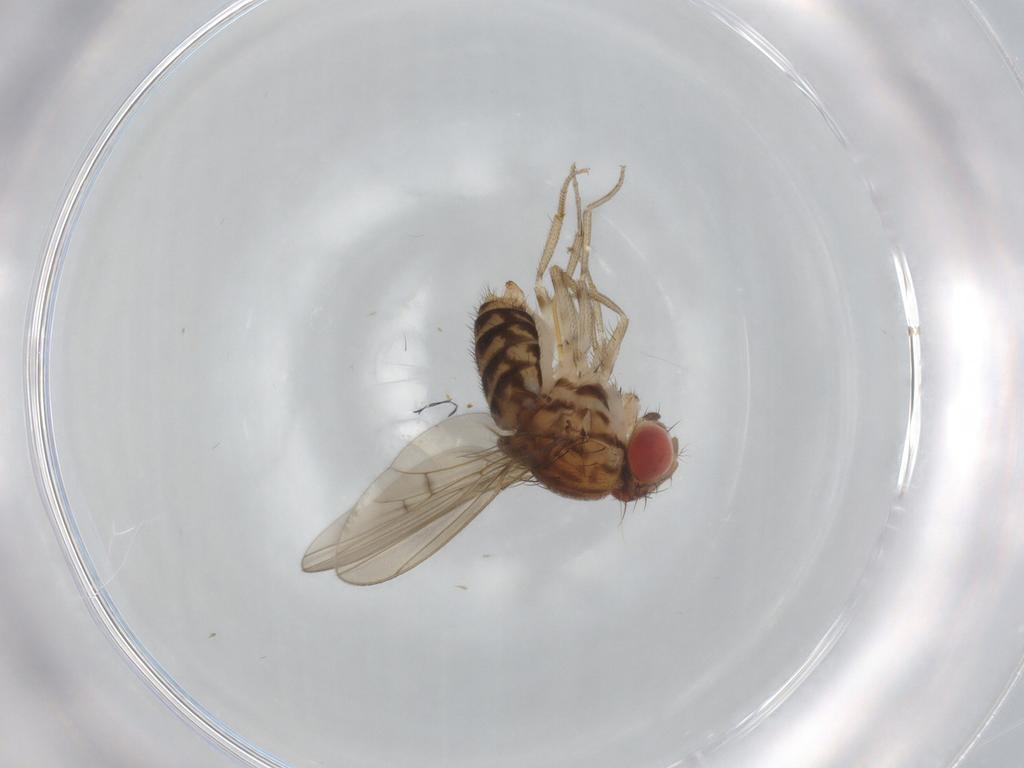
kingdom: Animalia
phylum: Arthropoda
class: Insecta
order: Diptera
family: Drosophilidae
